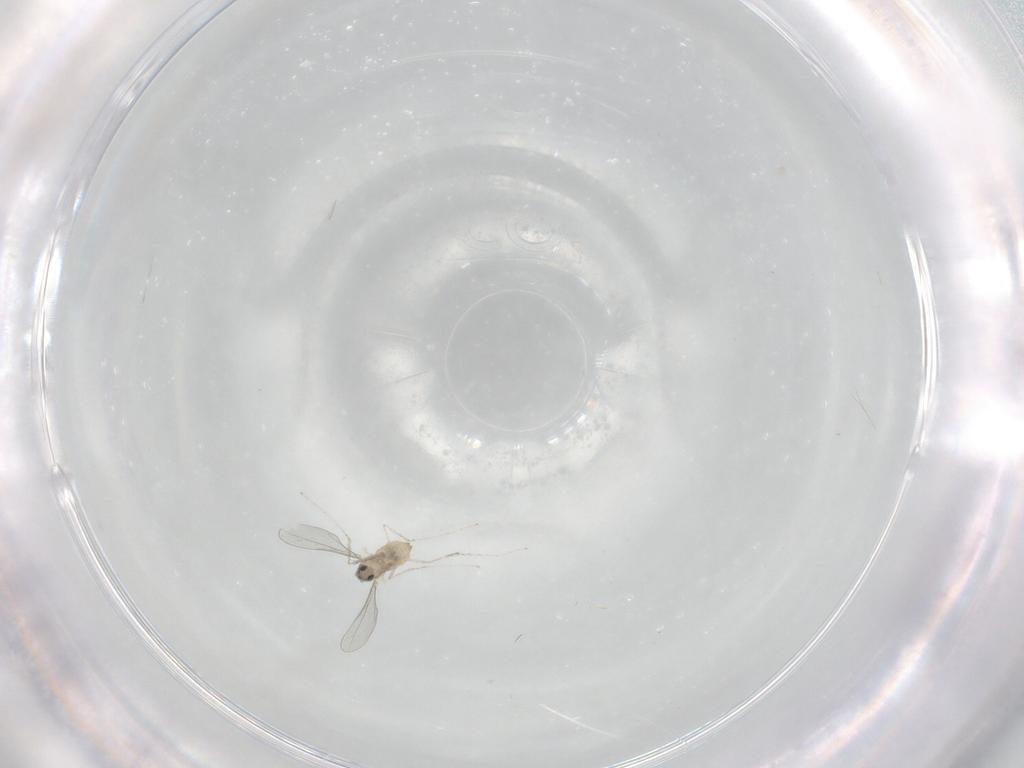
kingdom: Animalia
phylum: Arthropoda
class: Insecta
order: Diptera
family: Cecidomyiidae
